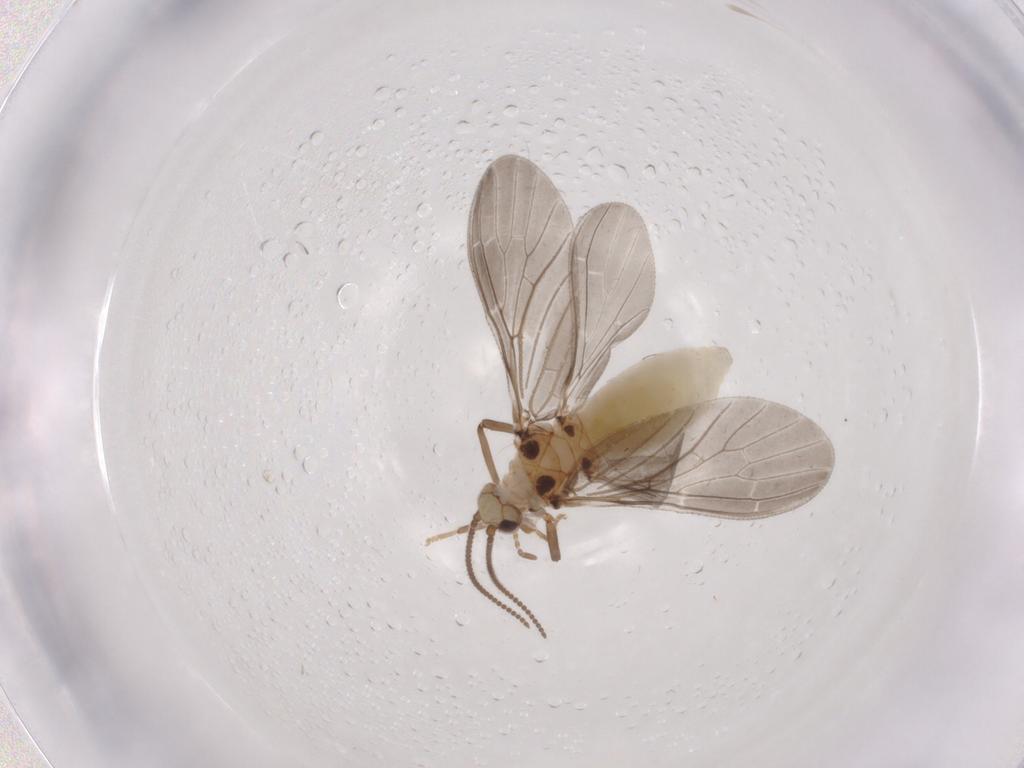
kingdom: Animalia
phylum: Arthropoda
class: Insecta
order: Neuroptera
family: Coniopterygidae
